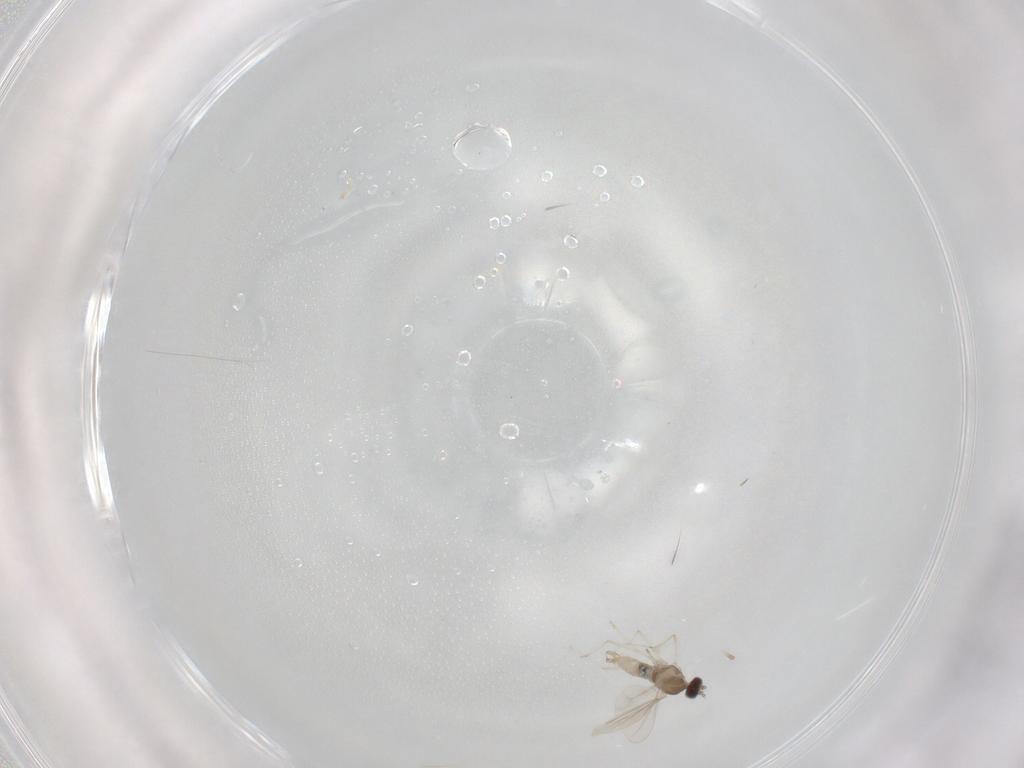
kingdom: Animalia
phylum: Arthropoda
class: Insecta
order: Diptera
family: Cecidomyiidae
